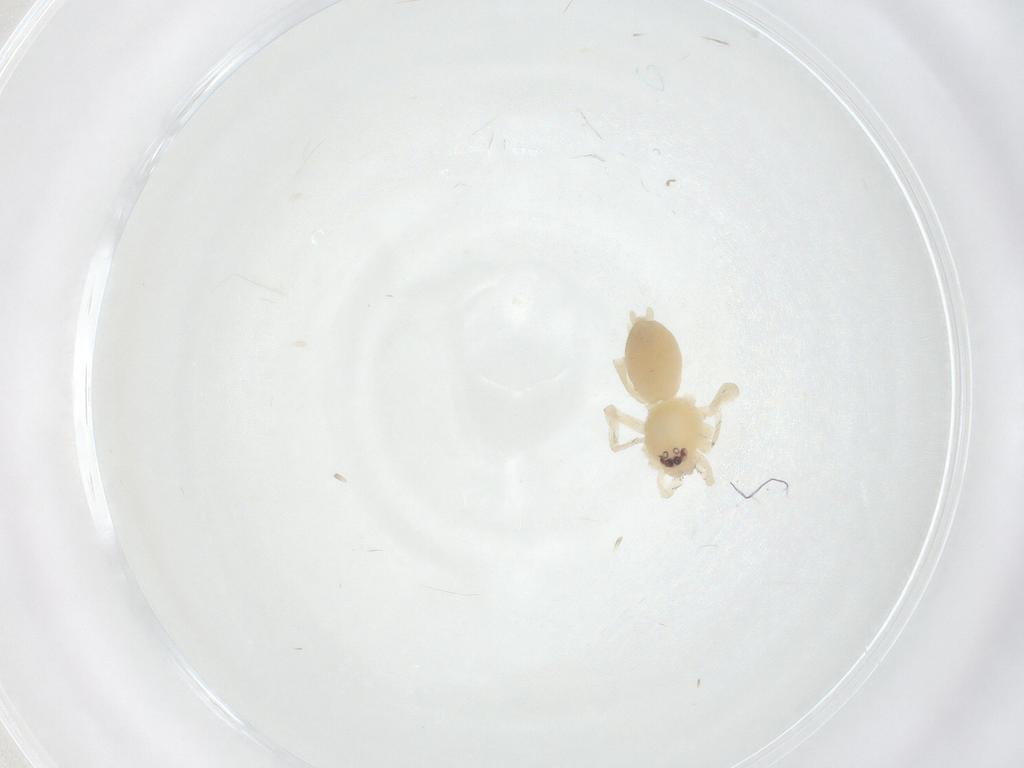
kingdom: Animalia
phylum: Arthropoda
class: Arachnida
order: Araneae
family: Corinnidae
